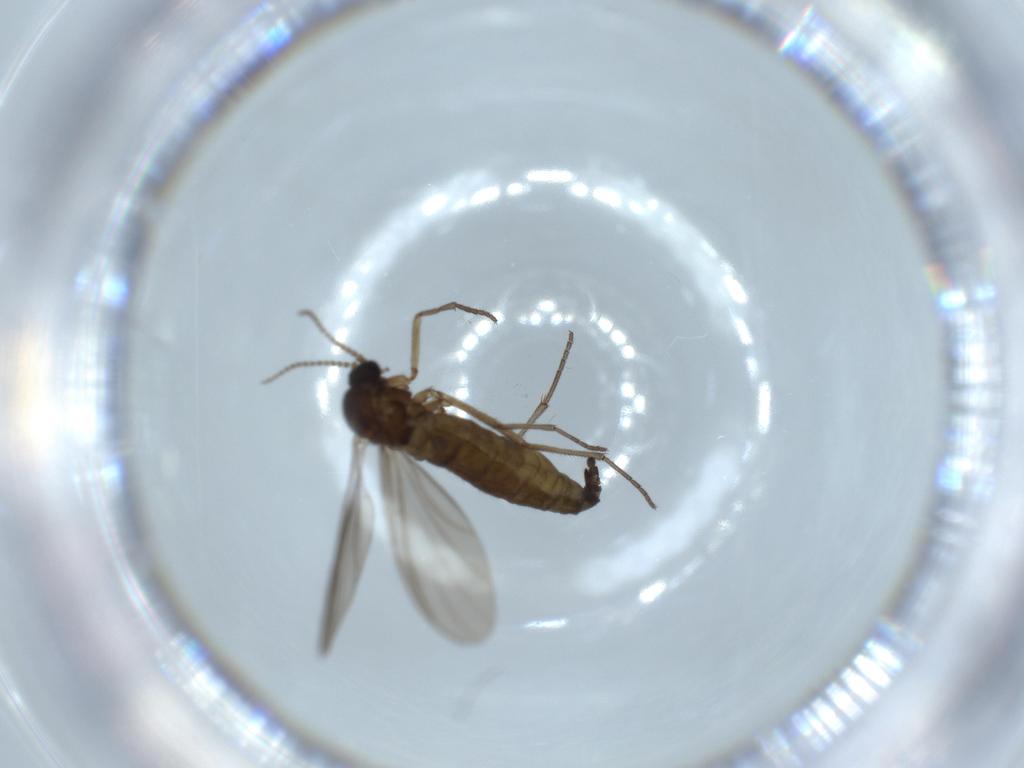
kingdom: Animalia
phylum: Arthropoda
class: Insecta
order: Diptera
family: Sciaridae
